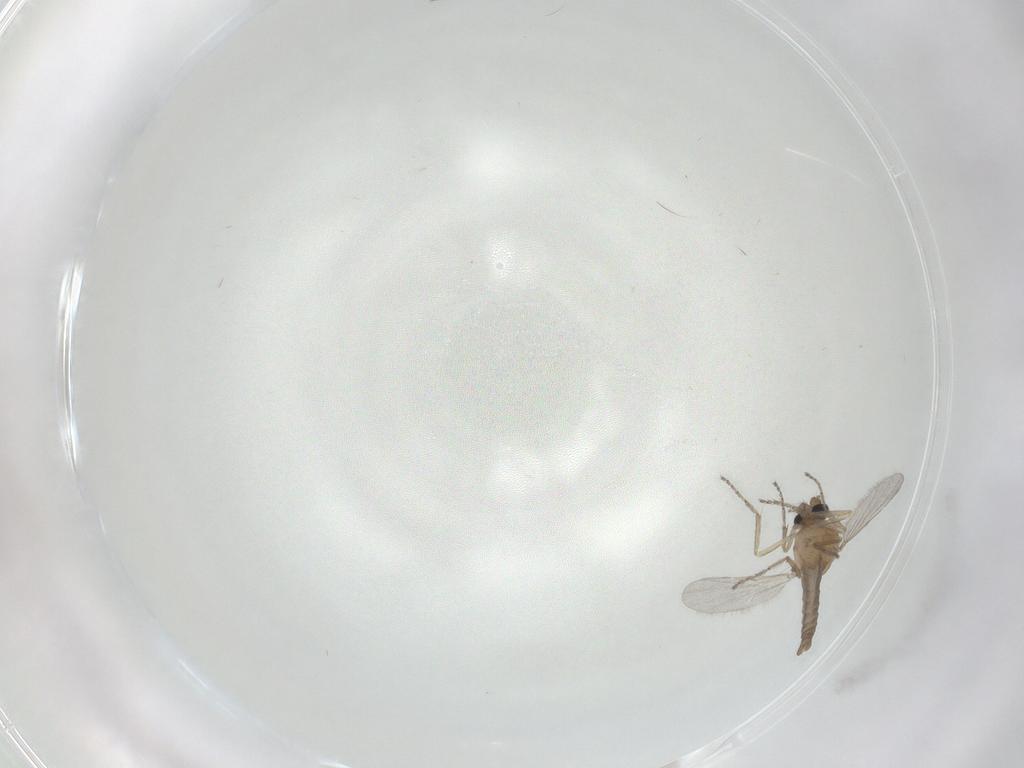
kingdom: Animalia
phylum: Arthropoda
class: Insecta
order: Diptera
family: Ceratopogonidae
